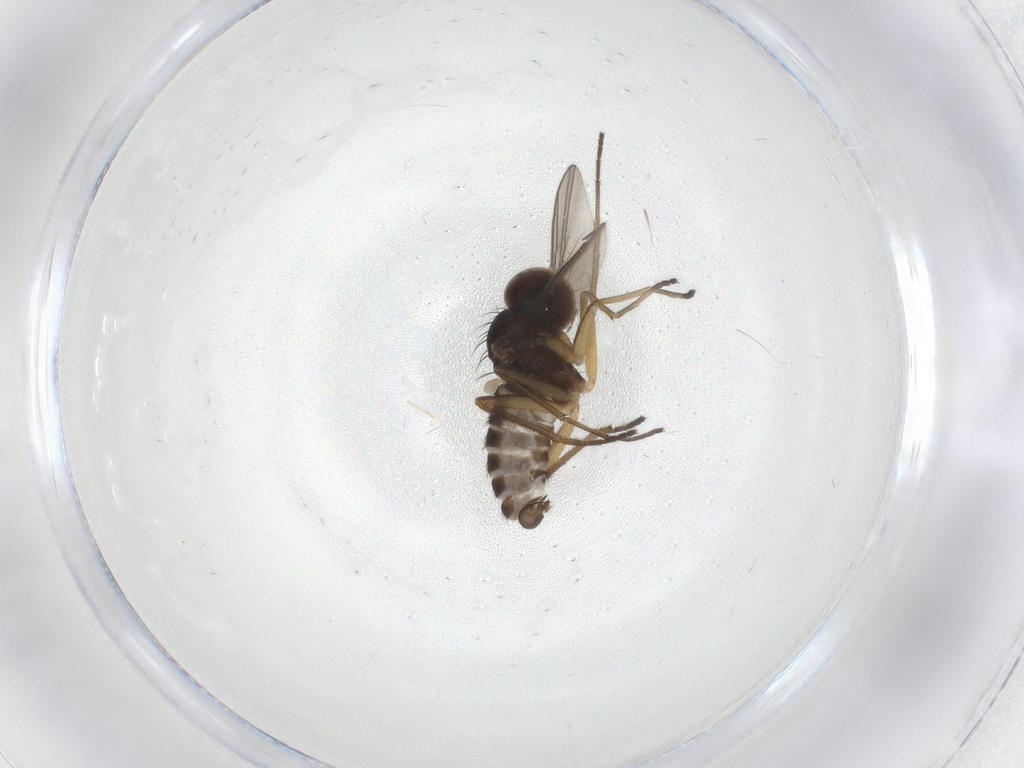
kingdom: Animalia
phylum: Arthropoda
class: Insecta
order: Diptera
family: Dolichopodidae
